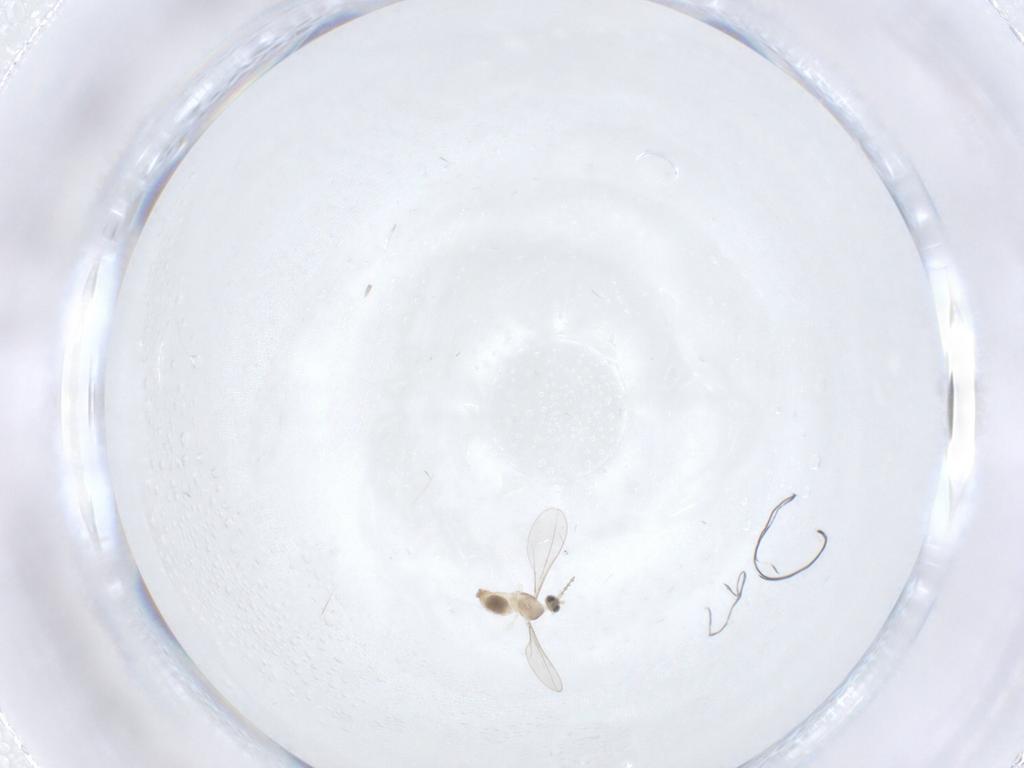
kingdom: Animalia
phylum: Arthropoda
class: Insecta
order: Diptera
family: Cecidomyiidae
